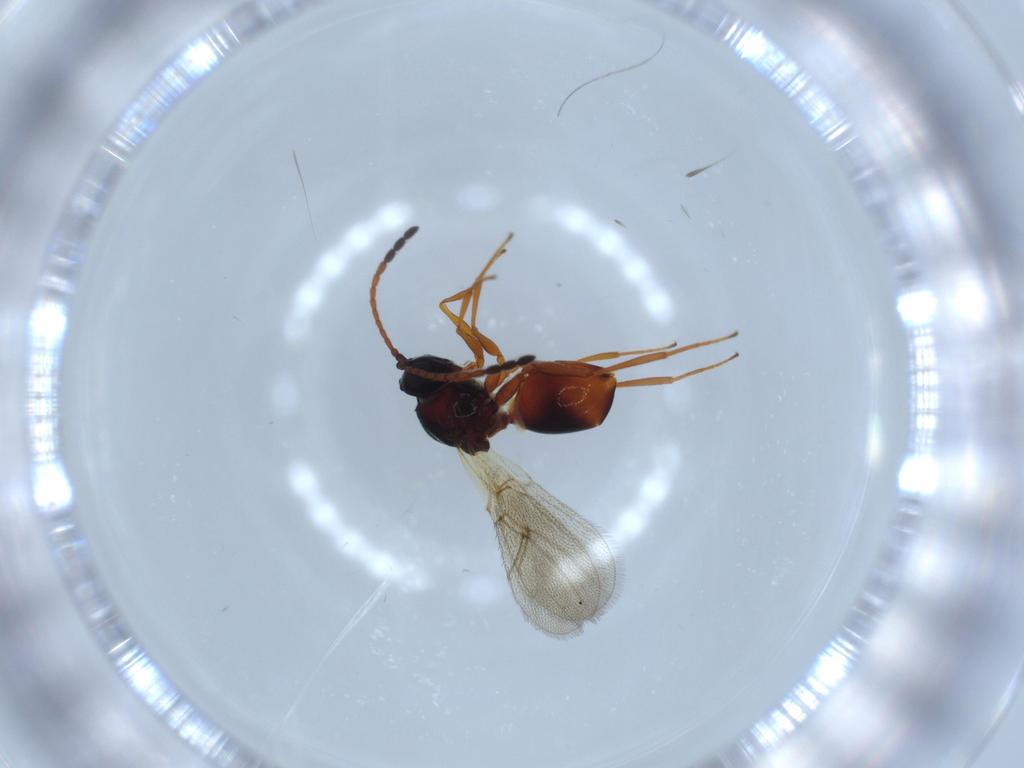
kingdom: Animalia
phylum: Arthropoda
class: Insecta
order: Hymenoptera
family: Figitidae
